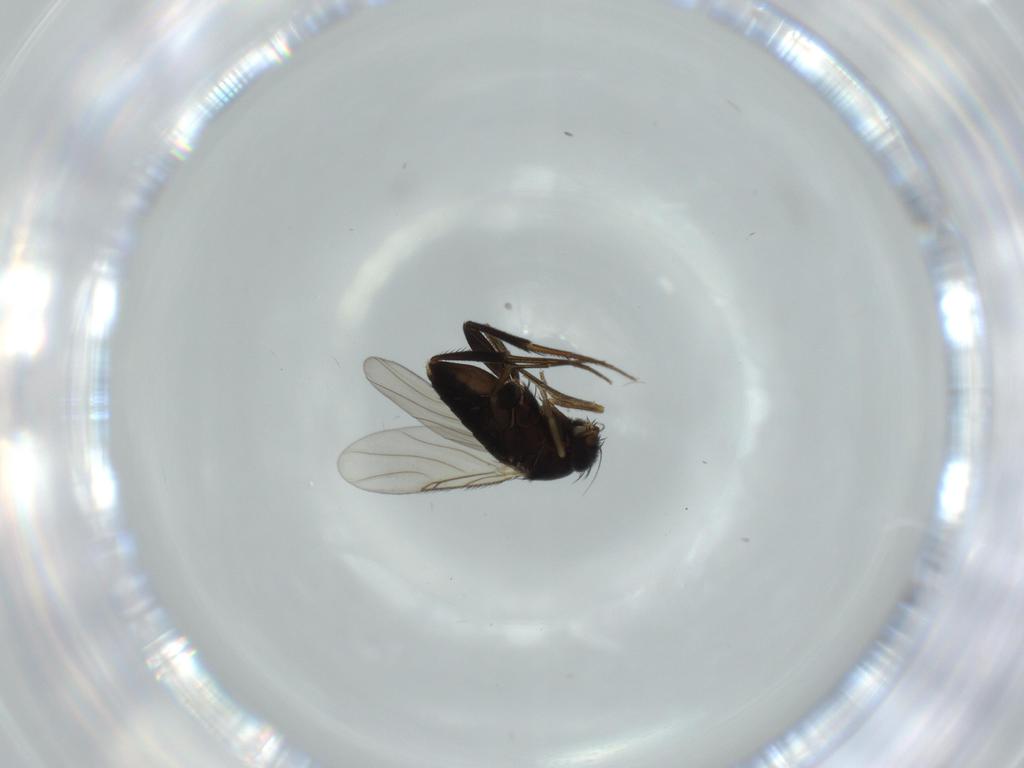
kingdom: Animalia
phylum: Arthropoda
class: Insecta
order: Diptera
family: Phoridae
